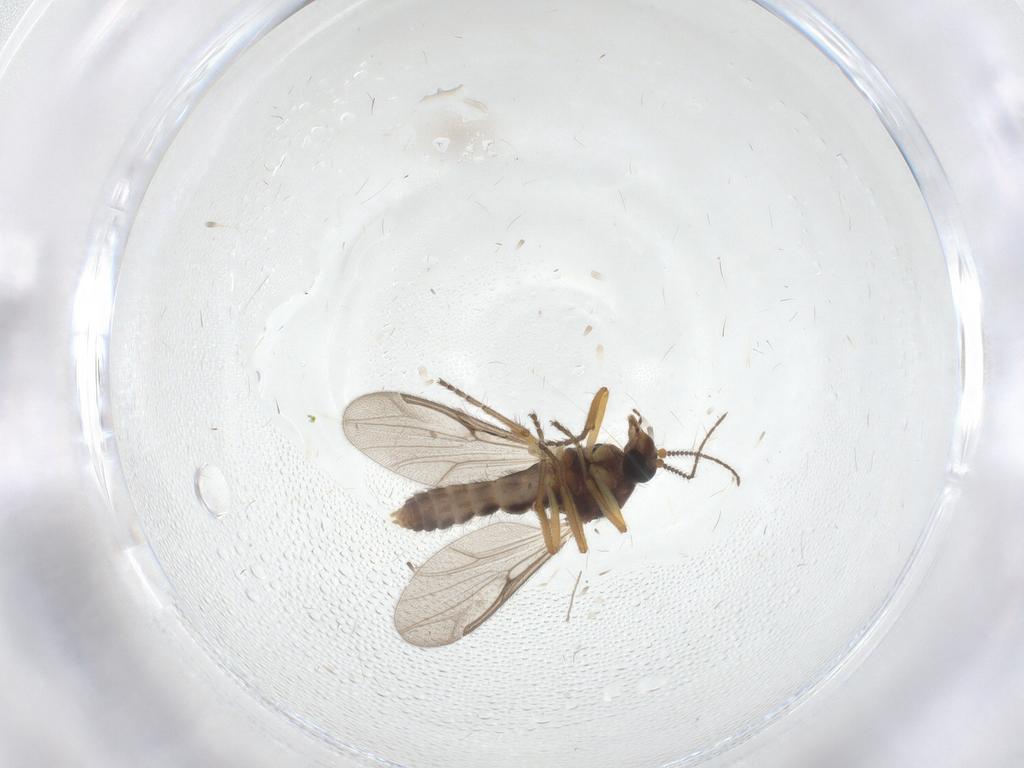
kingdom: Animalia
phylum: Arthropoda
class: Insecta
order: Diptera
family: Ceratopogonidae
